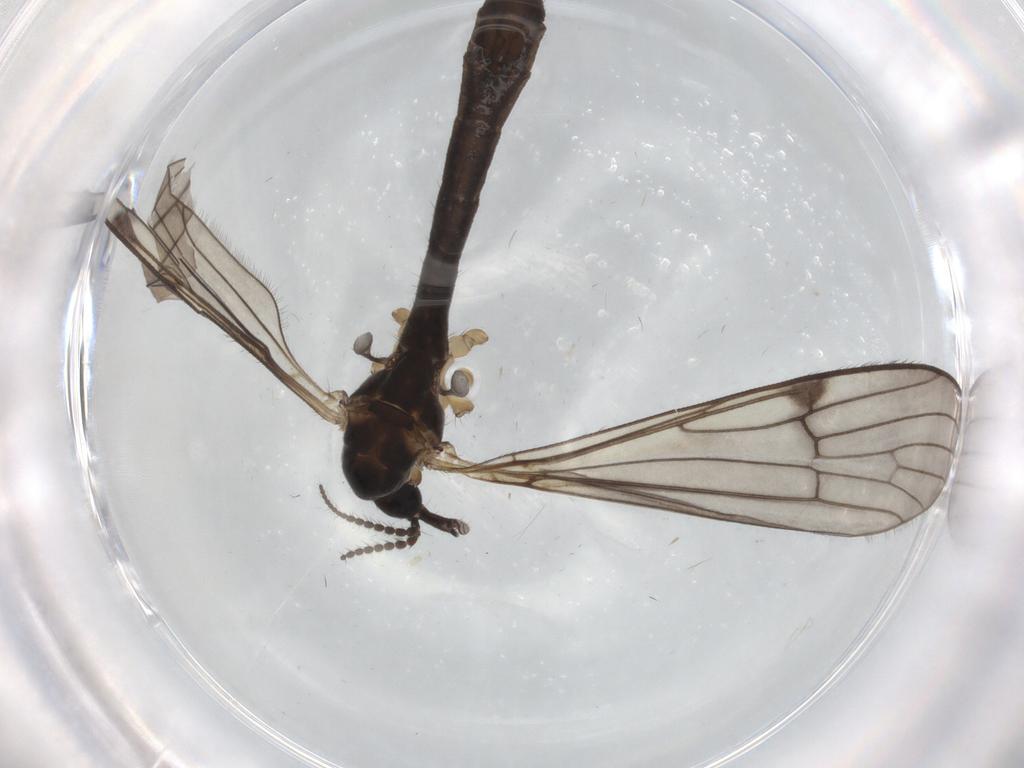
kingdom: Animalia
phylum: Arthropoda
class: Insecta
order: Diptera
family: Limoniidae
